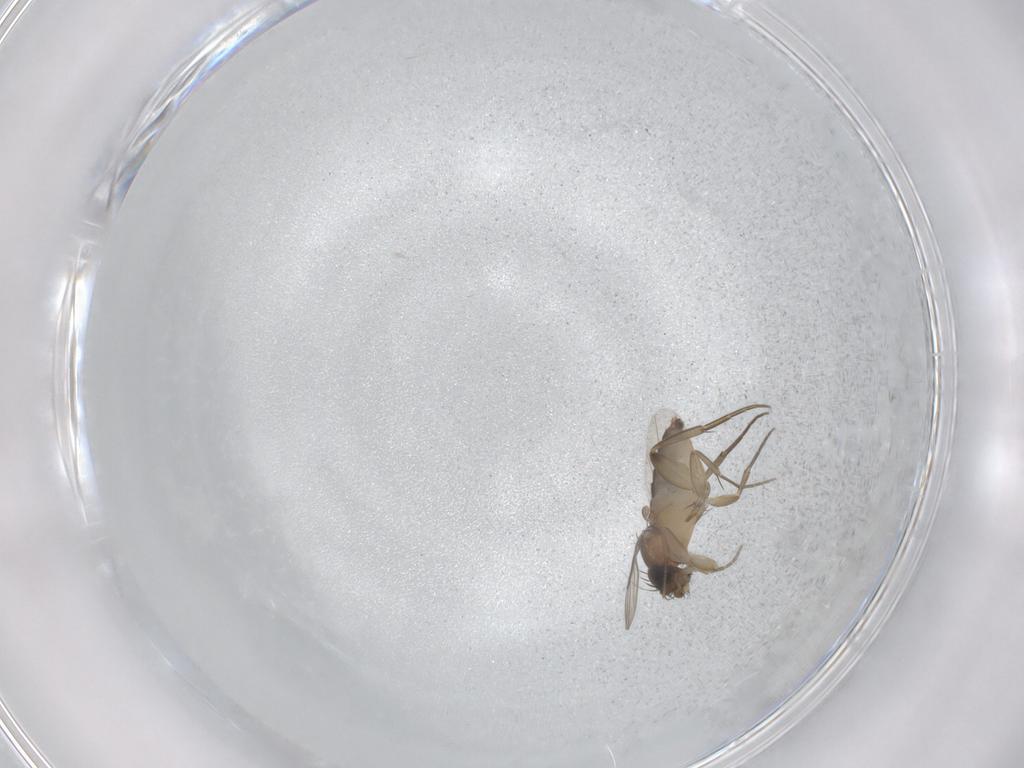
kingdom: Animalia
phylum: Arthropoda
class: Insecta
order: Diptera
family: Phoridae
